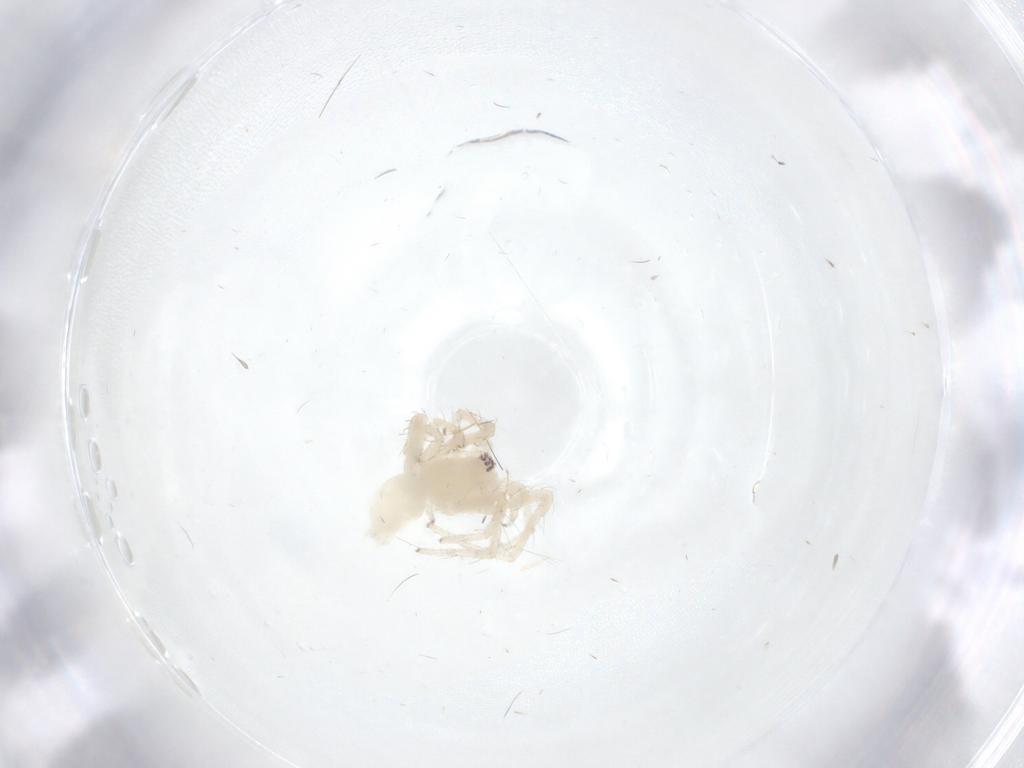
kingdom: Animalia
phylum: Arthropoda
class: Arachnida
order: Araneae
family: Anyphaenidae
